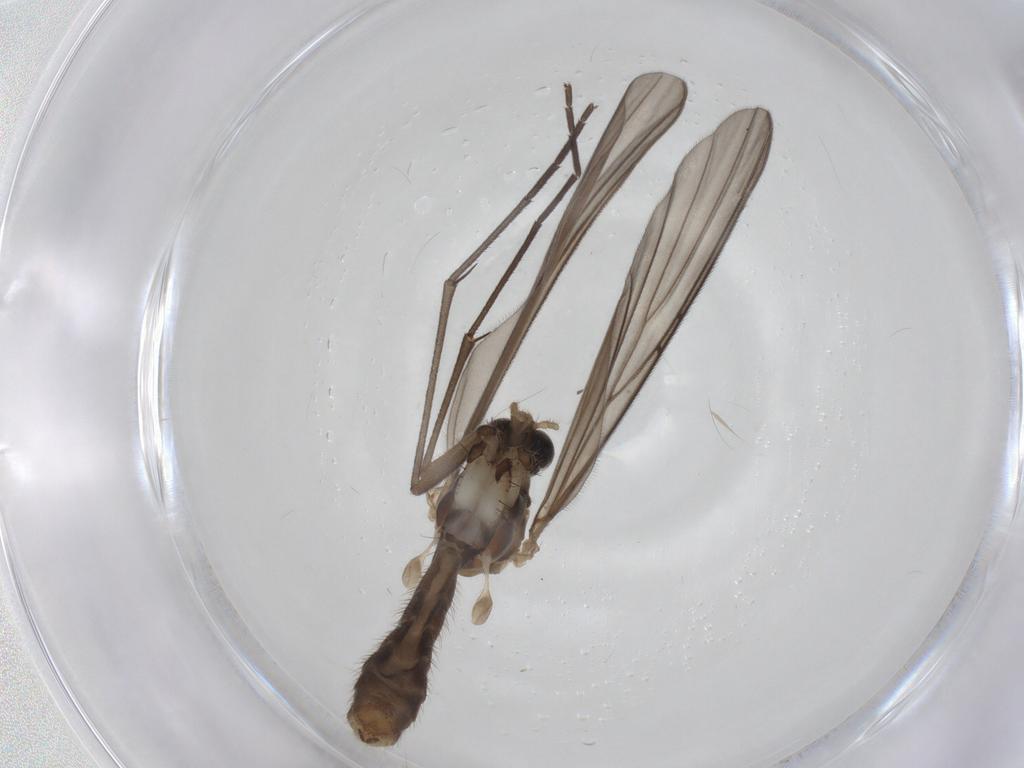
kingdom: Animalia
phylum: Arthropoda
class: Insecta
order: Diptera
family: Mycetophilidae
